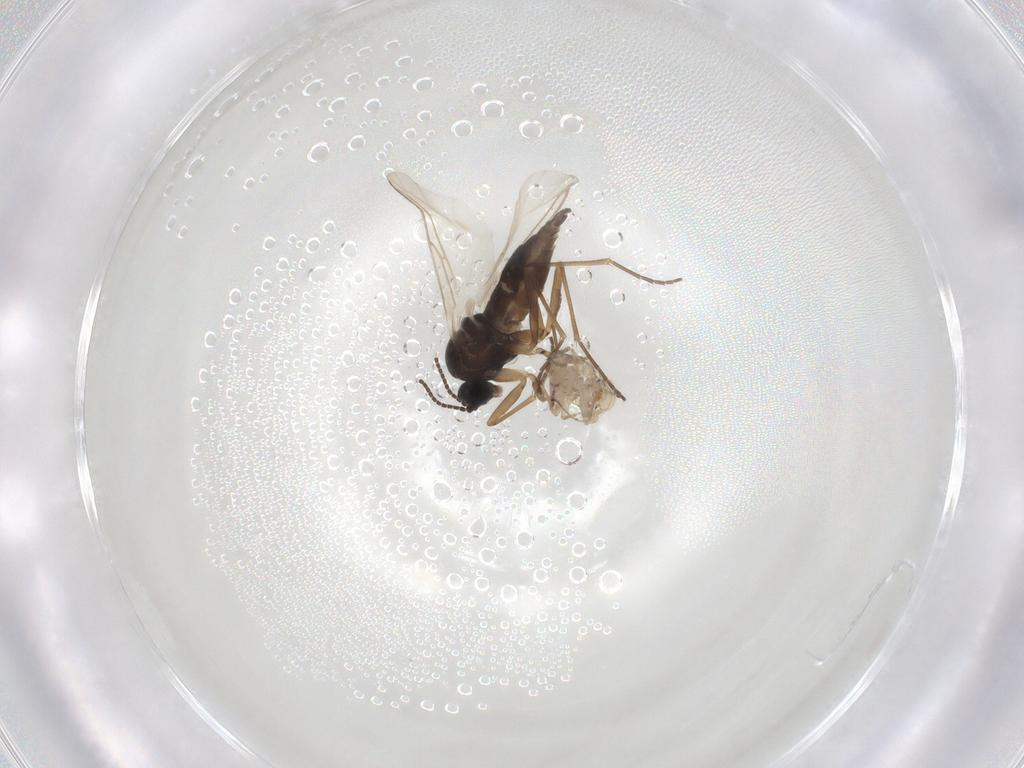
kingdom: Animalia
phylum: Arthropoda
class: Insecta
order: Diptera
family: Sciaridae
